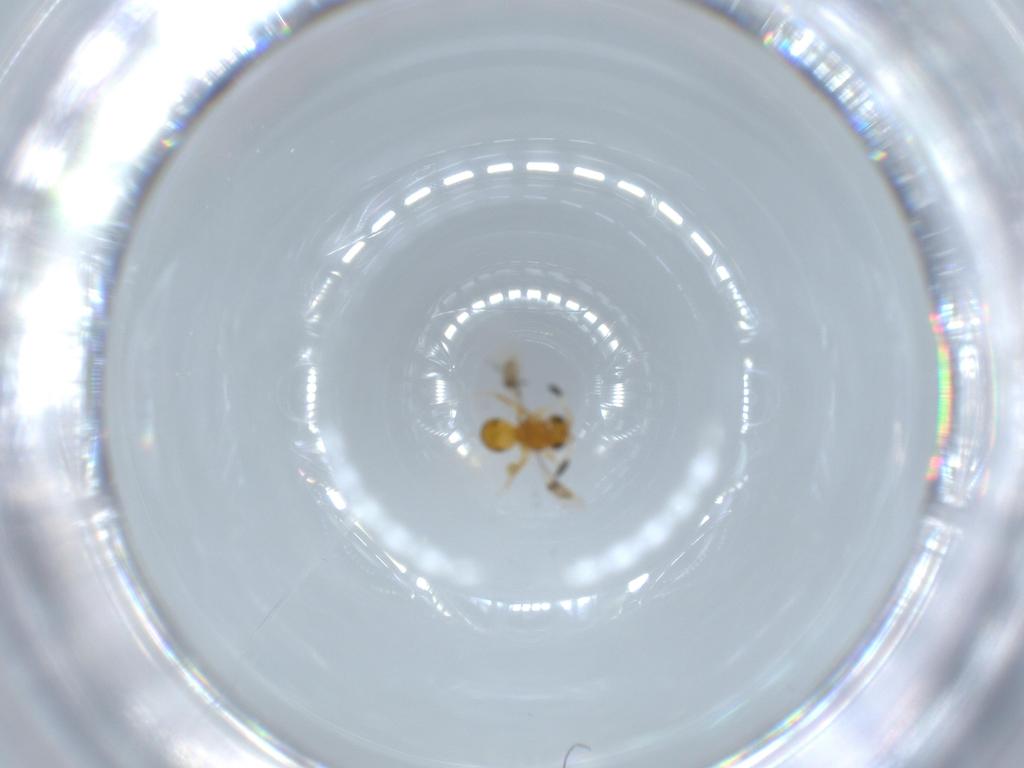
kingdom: Animalia
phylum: Arthropoda
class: Insecta
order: Hymenoptera
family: Scelionidae
